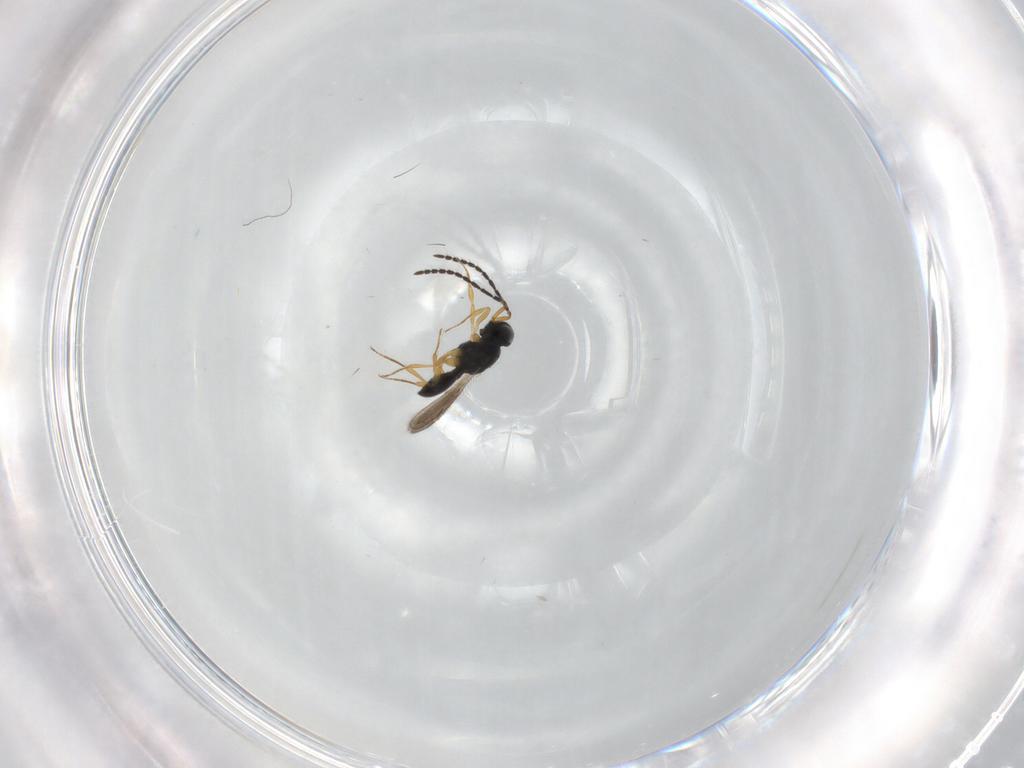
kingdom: Animalia
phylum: Arthropoda
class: Insecta
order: Hymenoptera
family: Scelionidae
